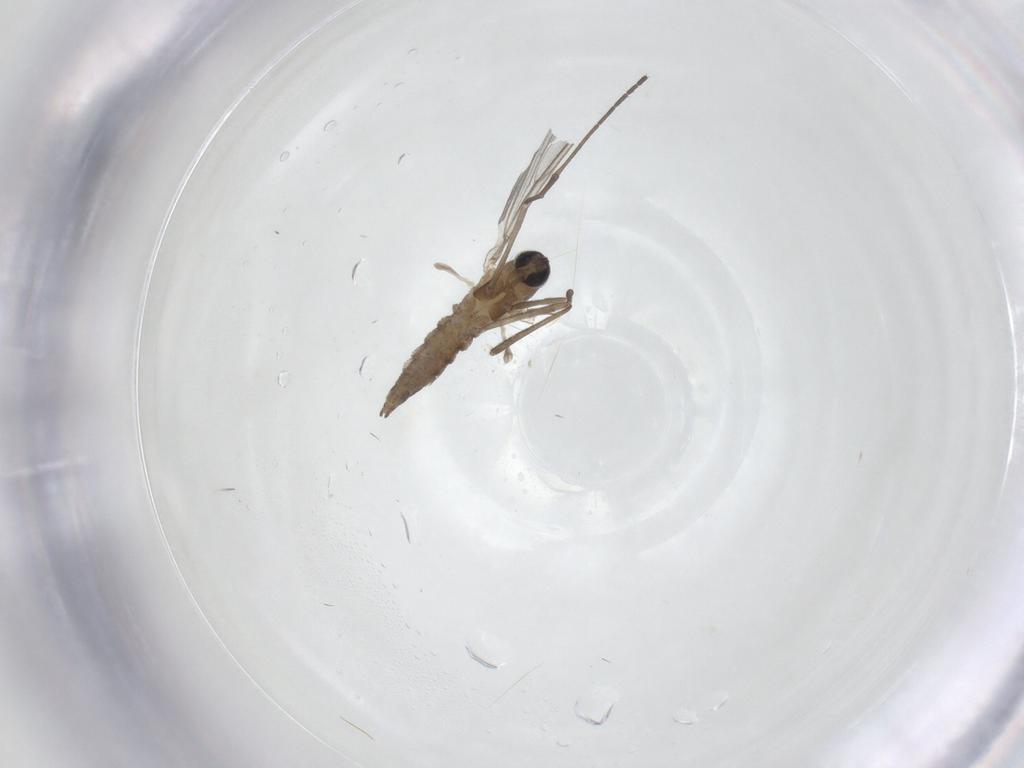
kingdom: Animalia
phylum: Arthropoda
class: Insecta
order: Diptera
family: Cecidomyiidae
